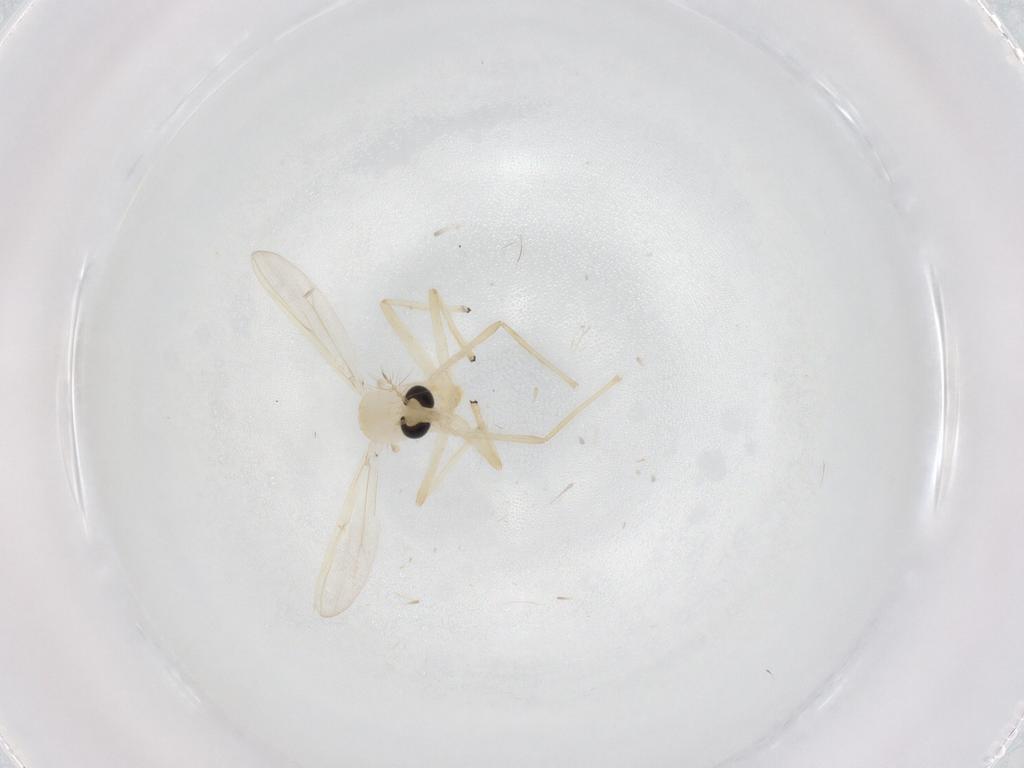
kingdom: Animalia
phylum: Arthropoda
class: Insecta
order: Diptera
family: Chironomidae
